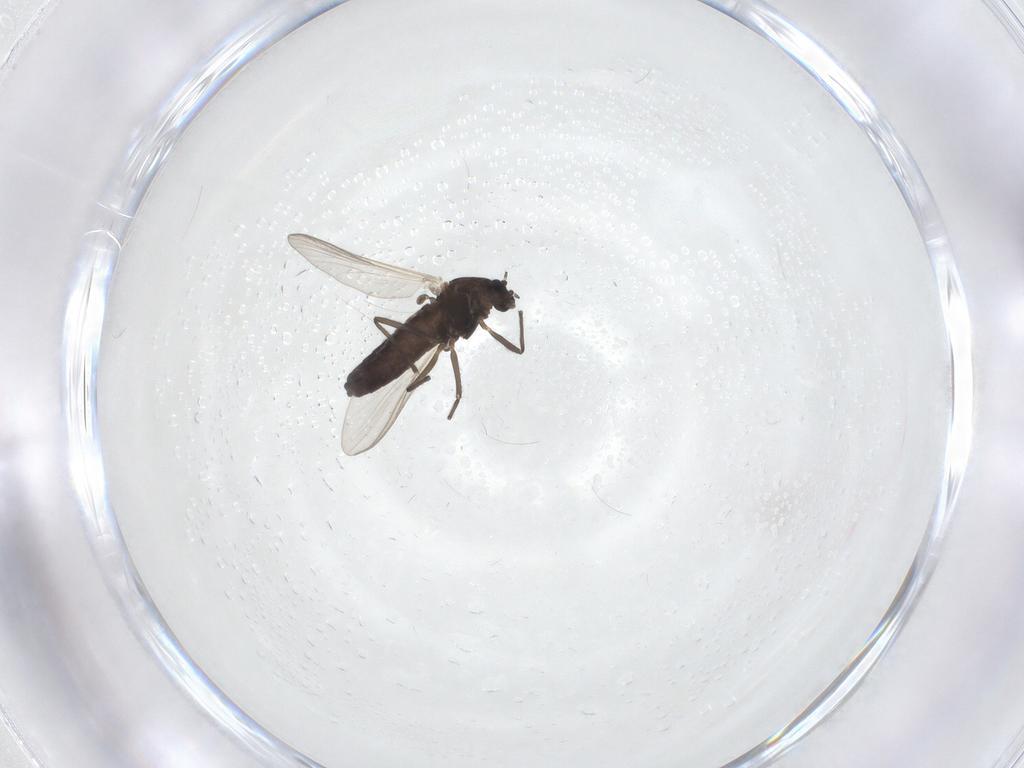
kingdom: Animalia
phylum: Arthropoda
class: Insecta
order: Diptera
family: Chironomidae
